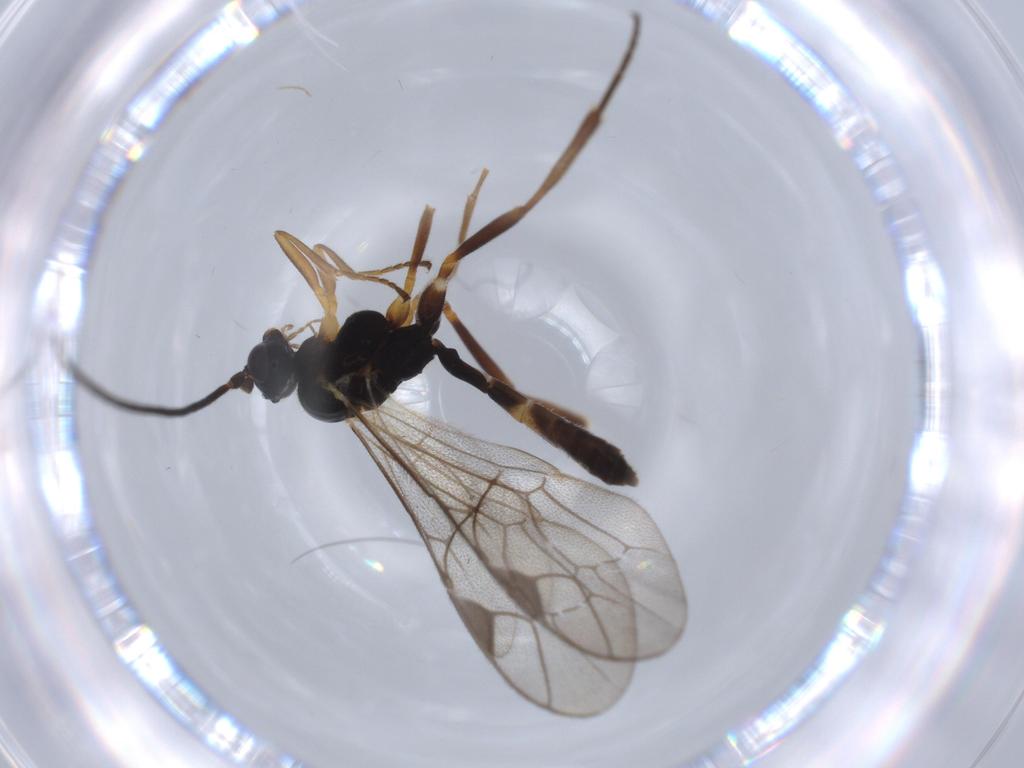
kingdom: Animalia
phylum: Arthropoda
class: Insecta
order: Hymenoptera
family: Ichneumonidae
